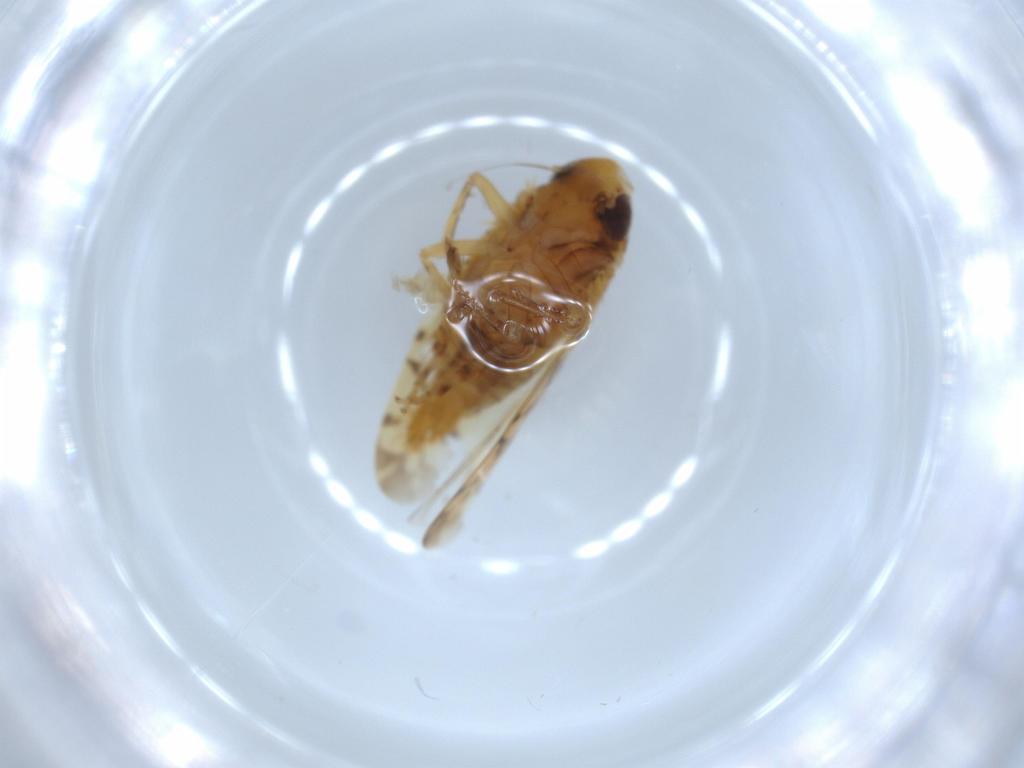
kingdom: Animalia
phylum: Arthropoda
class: Insecta
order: Hemiptera
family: Cicadellidae
